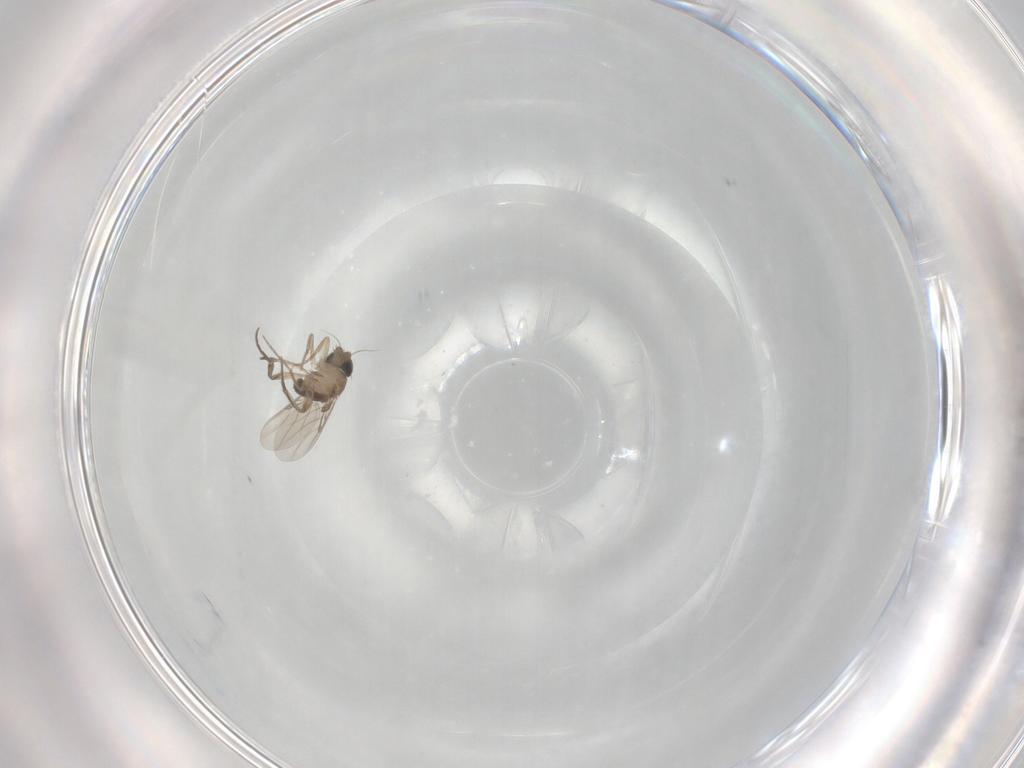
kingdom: Animalia
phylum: Arthropoda
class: Insecta
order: Diptera
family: Phoridae
